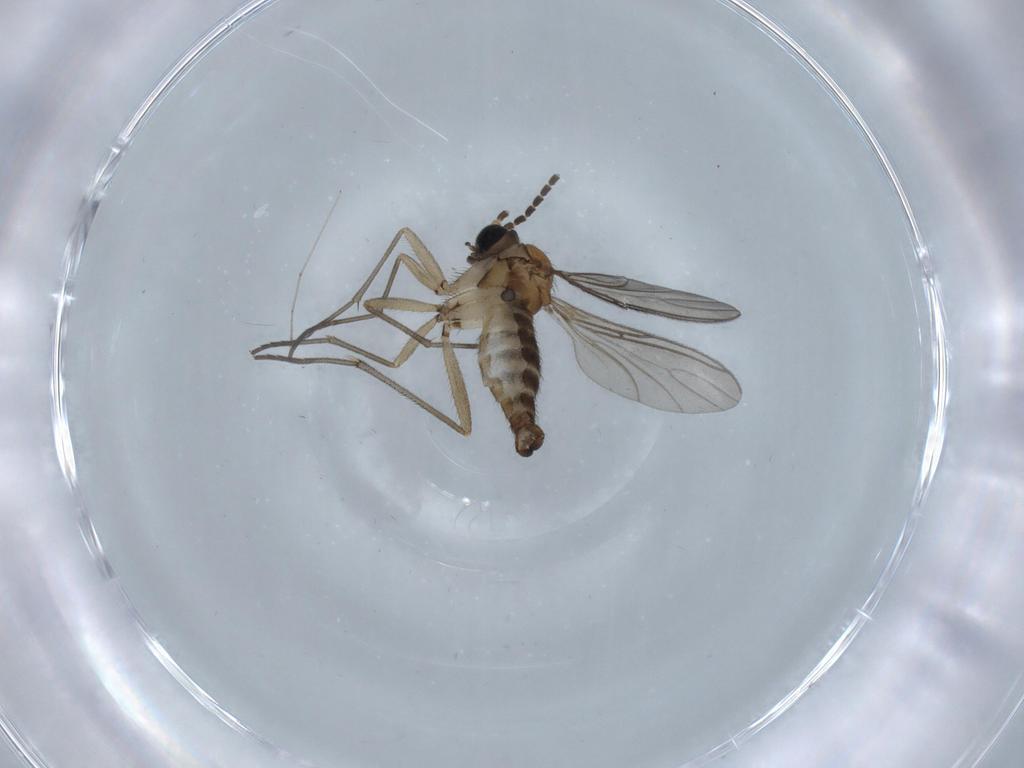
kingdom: Animalia
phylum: Arthropoda
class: Insecta
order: Diptera
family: Sciaridae
